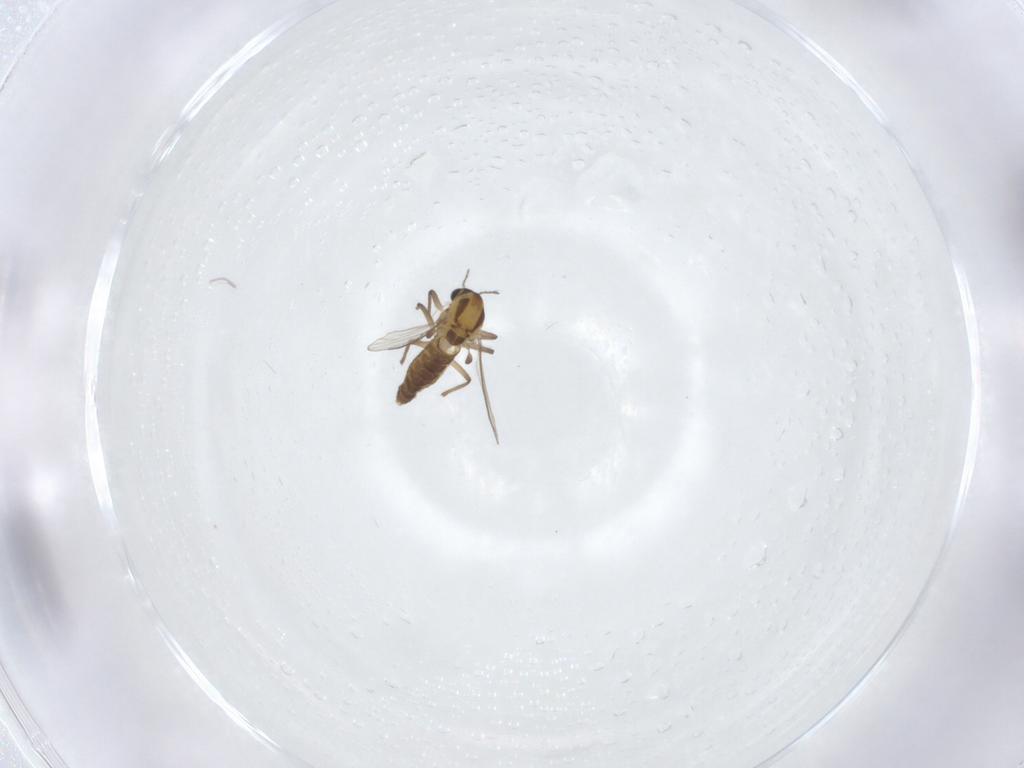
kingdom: Animalia
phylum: Arthropoda
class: Insecta
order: Diptera
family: Chironomidae
